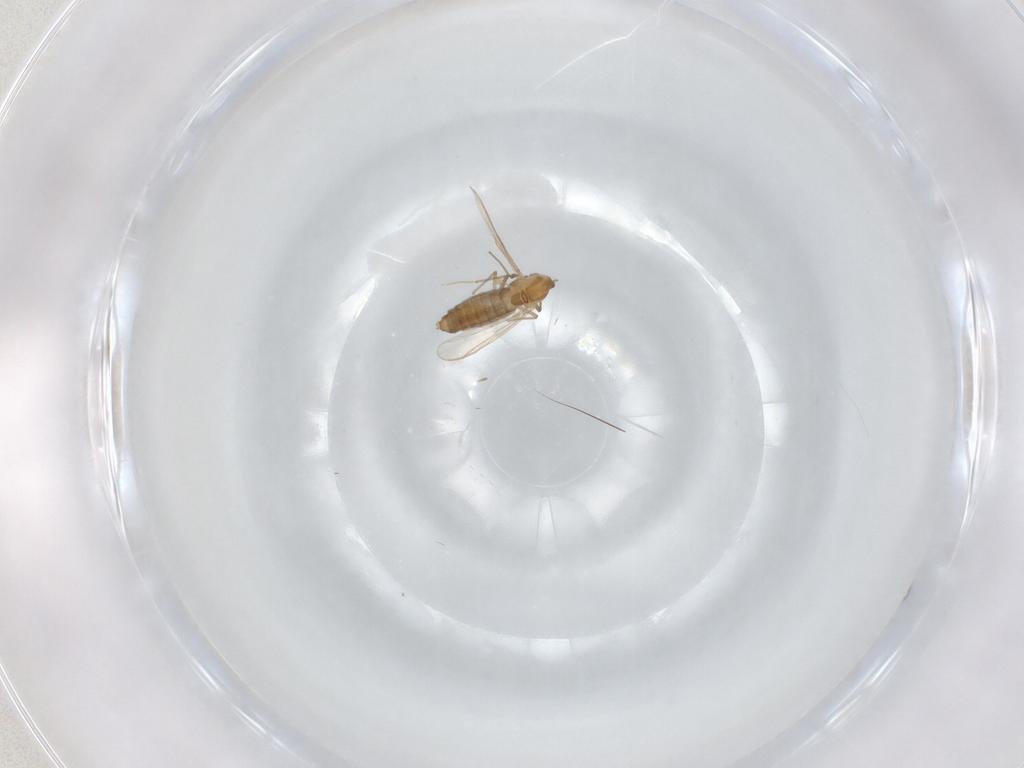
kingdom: Animalia
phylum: Arthropoda
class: Insecta
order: Diptera
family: Chironomidae
